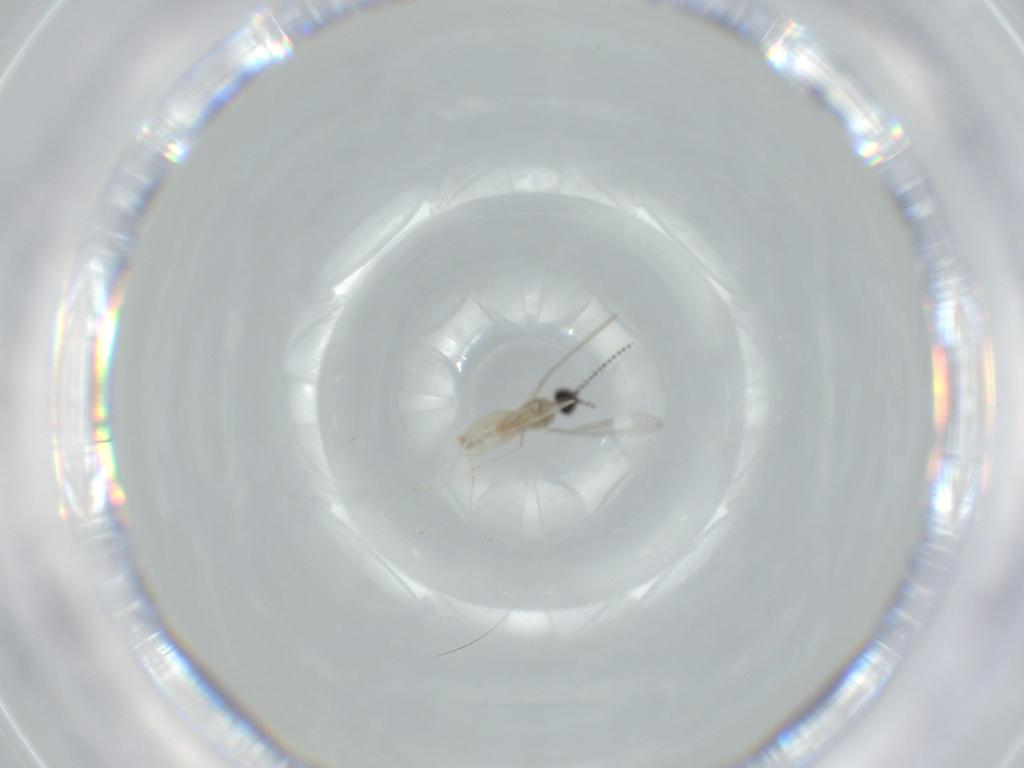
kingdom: Animalia
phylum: Arthropoda
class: Insecta
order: Diptera
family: Cecidomyiidae
